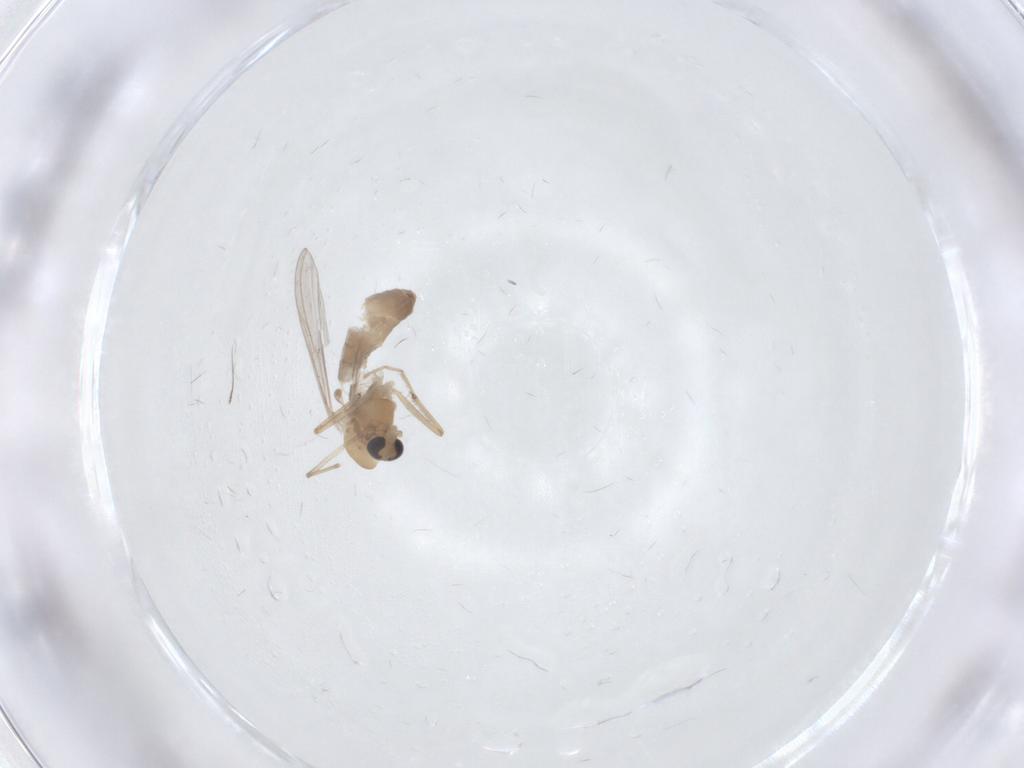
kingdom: Animalia
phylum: Arthropoda
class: Insecta
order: Diptera
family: Chironomidae
